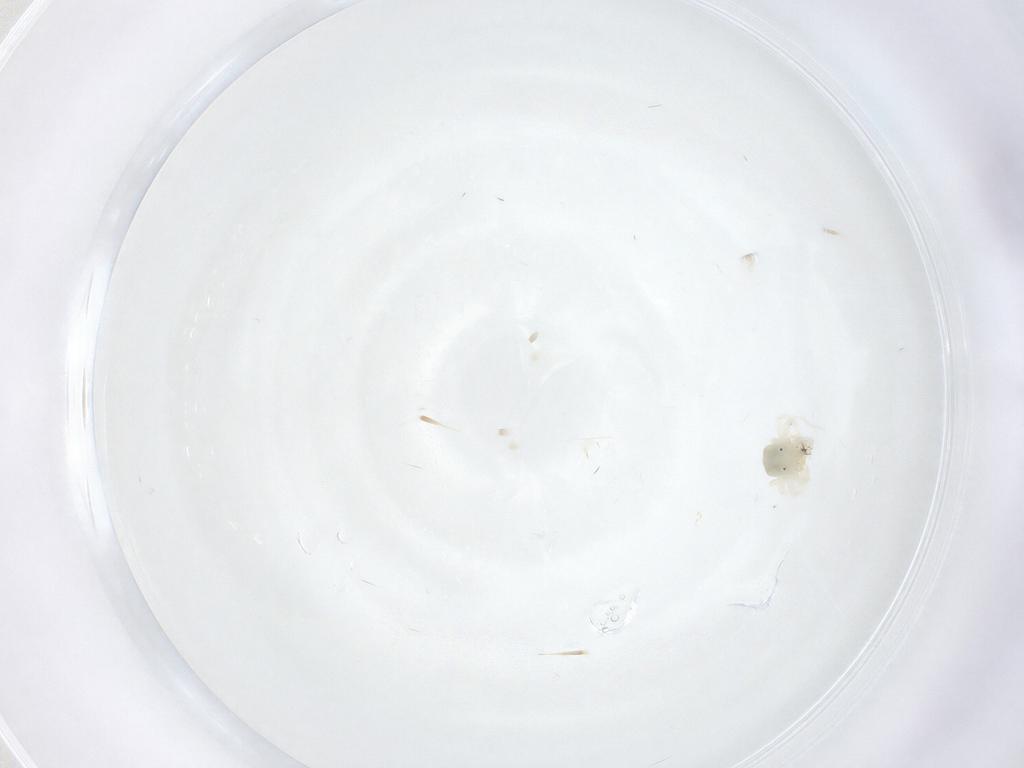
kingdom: Animalia
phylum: Arthropoda
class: Arachnida
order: Trombidiformes
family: Anystidae
